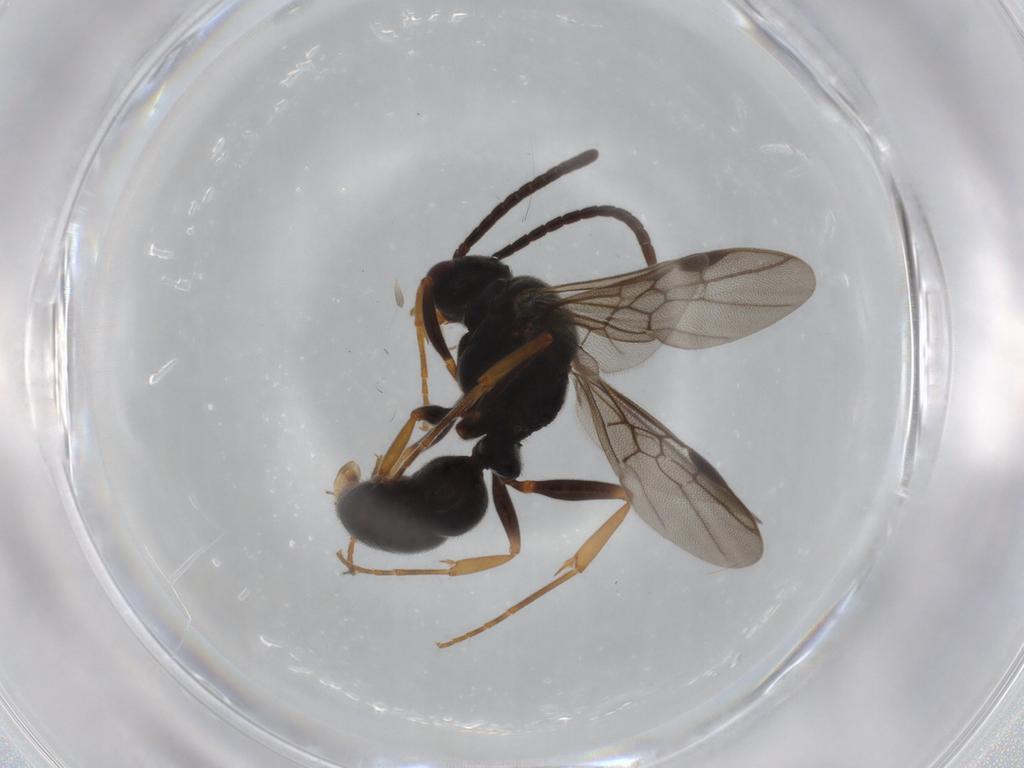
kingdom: Animalia
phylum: Arthropoda
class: Insecta
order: Hymenoptera
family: Formicidae
